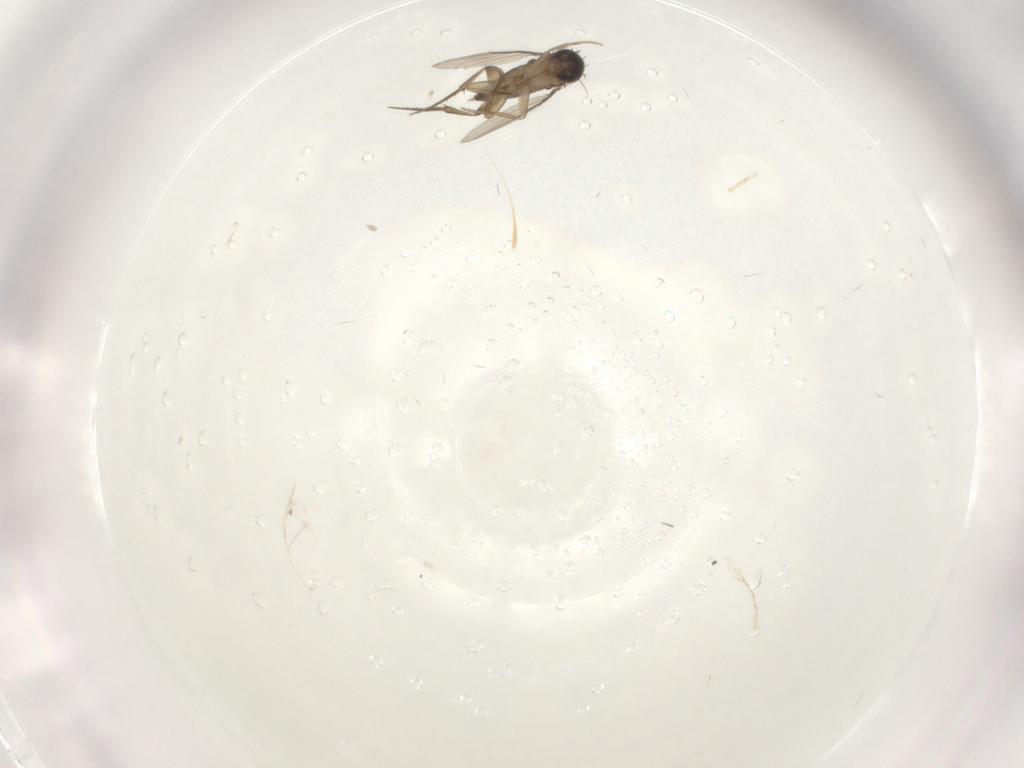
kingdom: Animalia
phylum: Arthropoda
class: Insecta
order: Diptera
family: Phoridae
